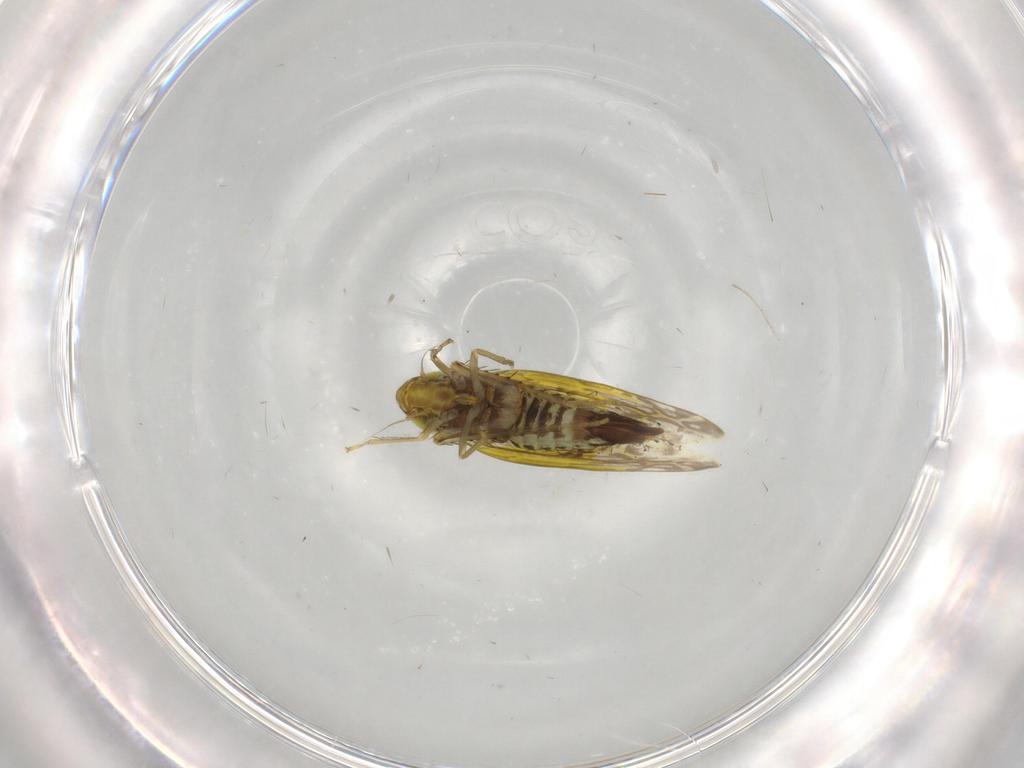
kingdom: Animalia
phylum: Arthropoda
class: Insecta
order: Hemiptera
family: Cicadellidae
